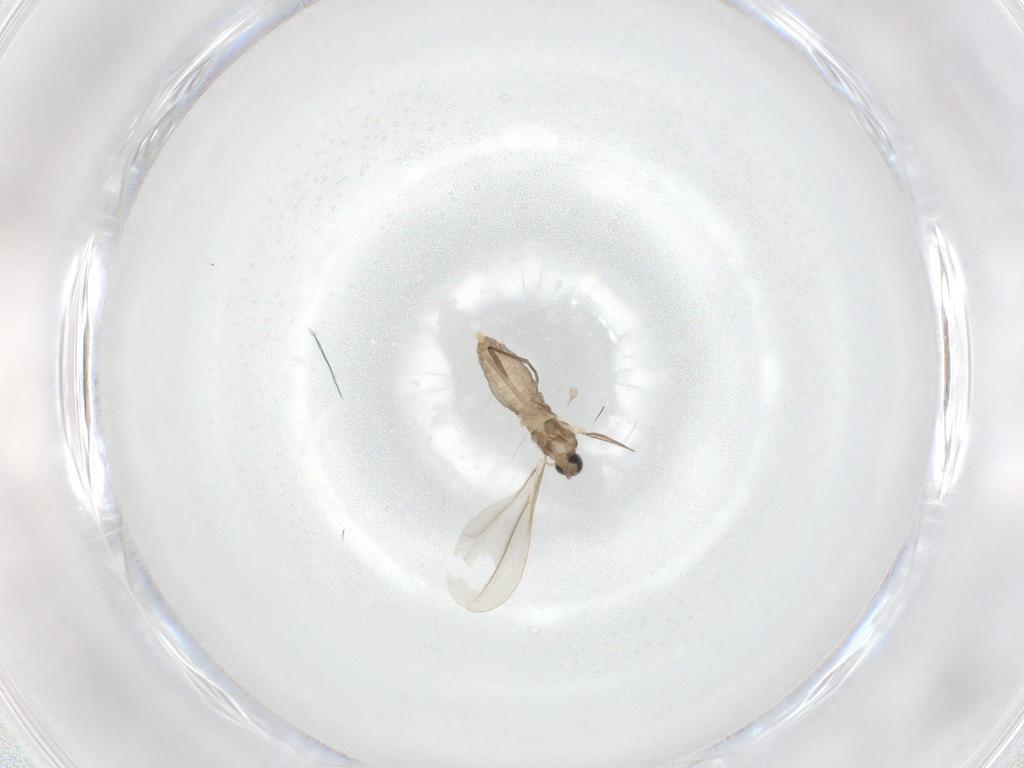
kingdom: Animalia
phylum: Arthropoda
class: Insecta
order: Diptera
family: Cecidomyiidae
